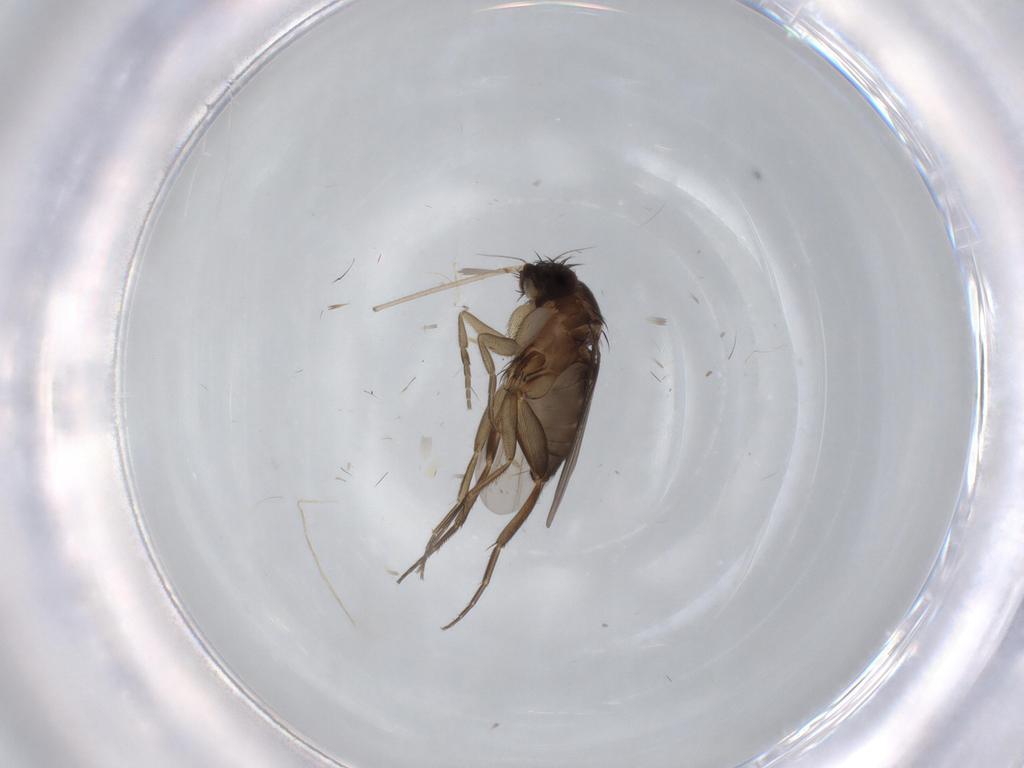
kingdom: Animalia
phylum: Arthropoda
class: Insecta
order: Diptera
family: Phoridae
